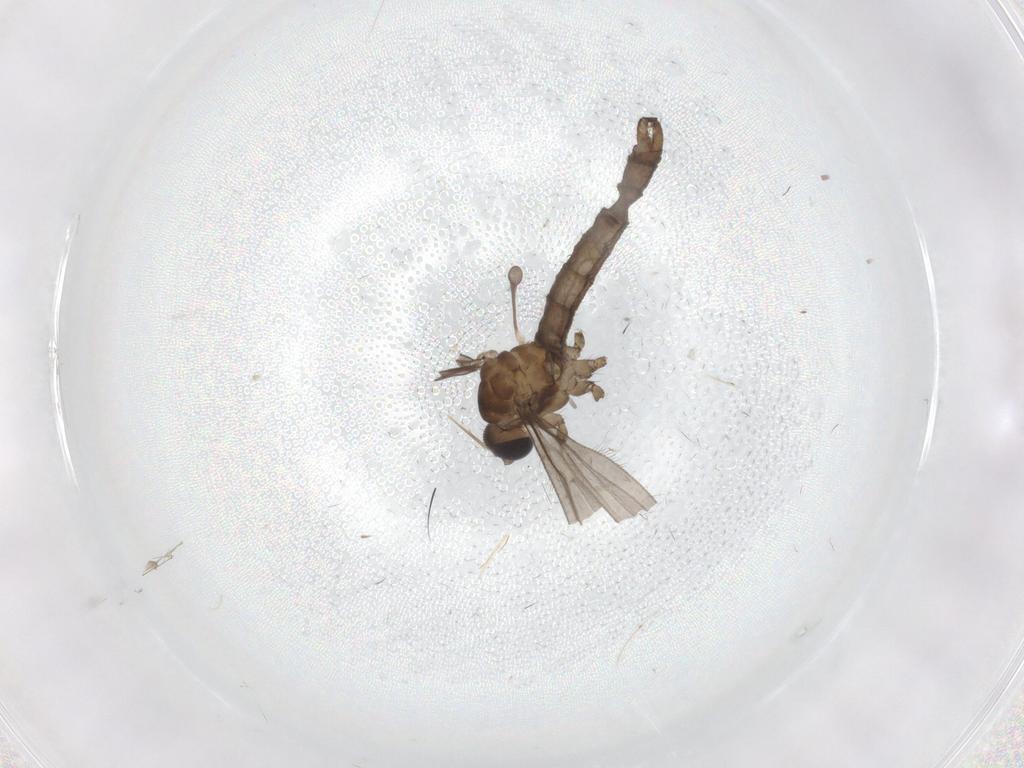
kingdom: Animalia
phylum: Arthropoda
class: Insecta
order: Diptera
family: Limoniidae
